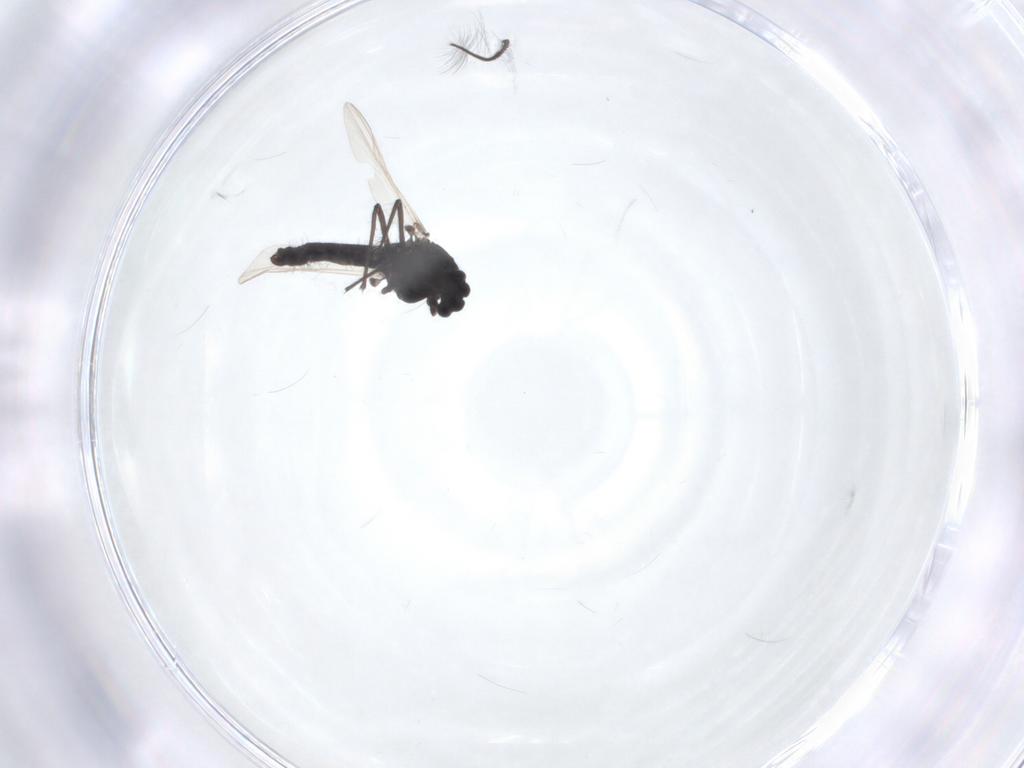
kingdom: Animalia
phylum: Arthropoda
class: Insecta
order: Diptera
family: Chironomidae
